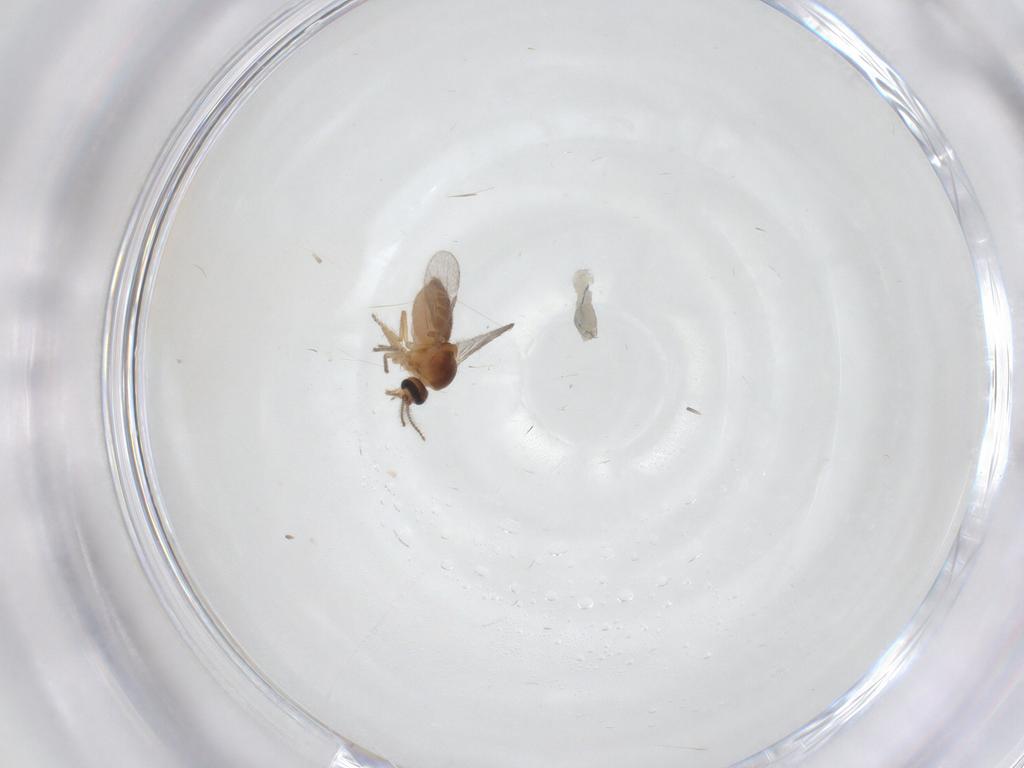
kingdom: Animalia
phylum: Arthropoda
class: Insecta
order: Diptera
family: Ceratopogonidae
